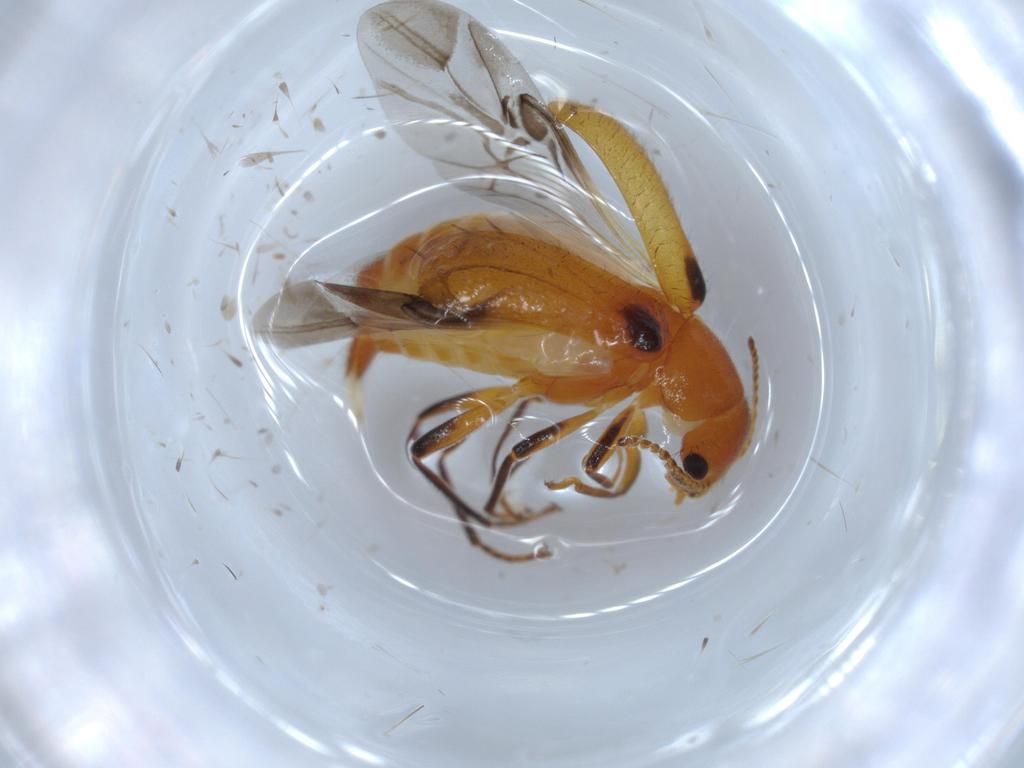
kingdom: Animalia
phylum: Arthropoda
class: Insecta
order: Coleoptera
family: Melyridae
